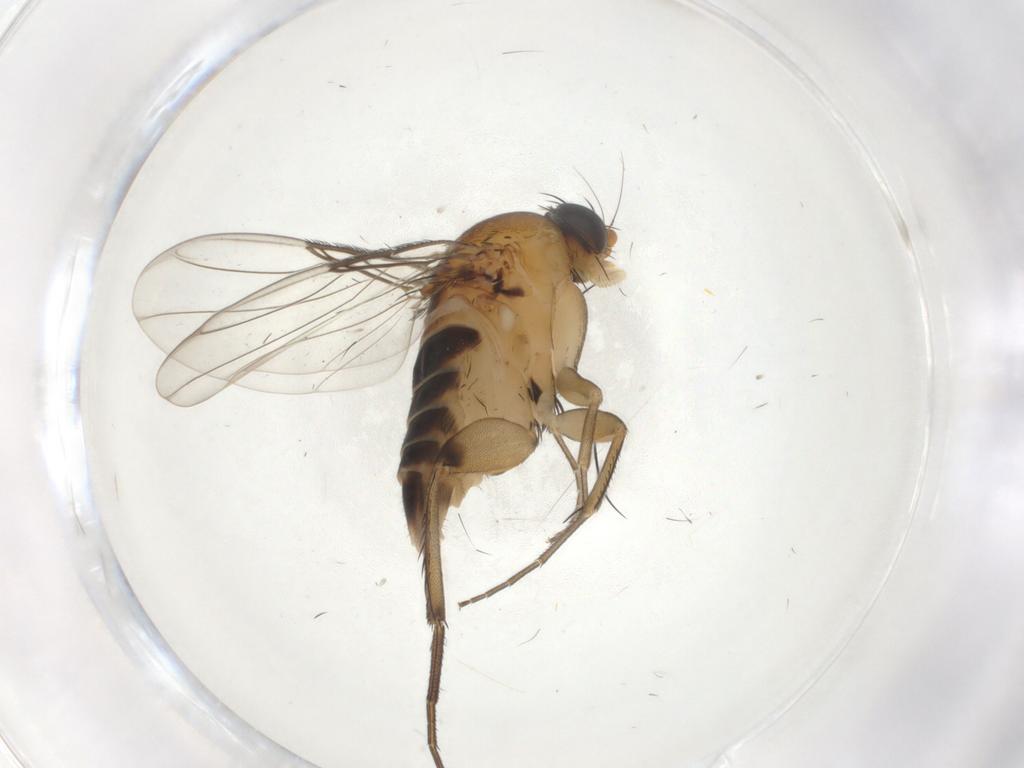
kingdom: Animalia
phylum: Arthropoda
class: Insecta
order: Diptera
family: Phoridae
